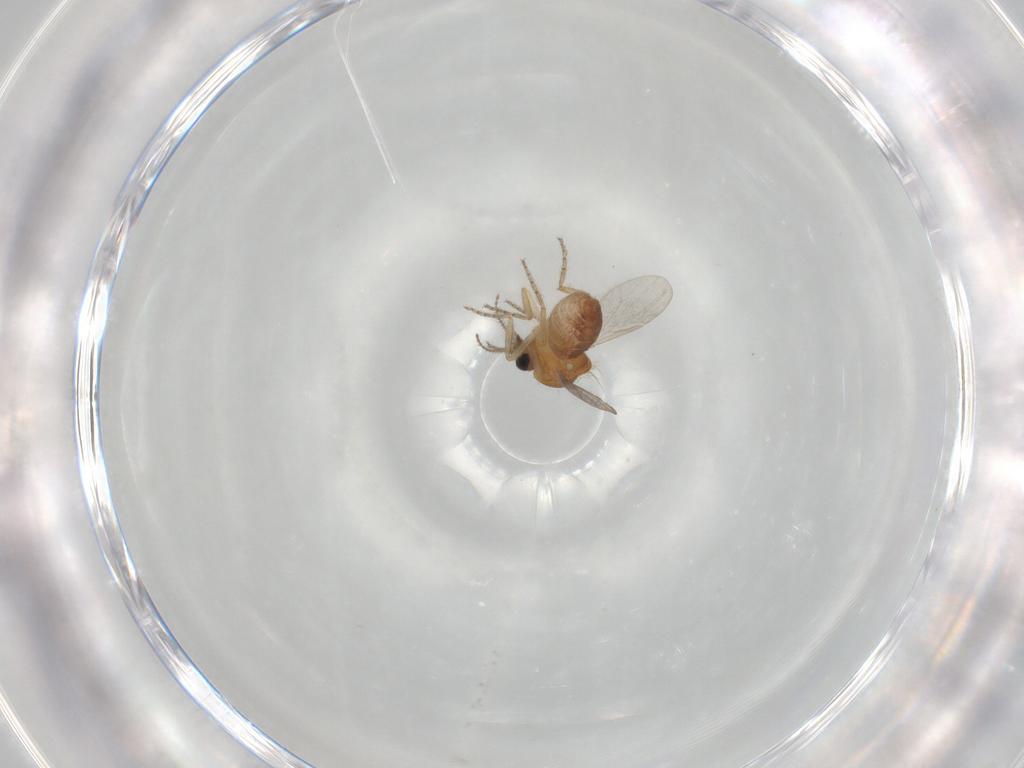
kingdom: Animalia
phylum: Arthropoda
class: Insecta
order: Diptera
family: Ceratopogonidae
